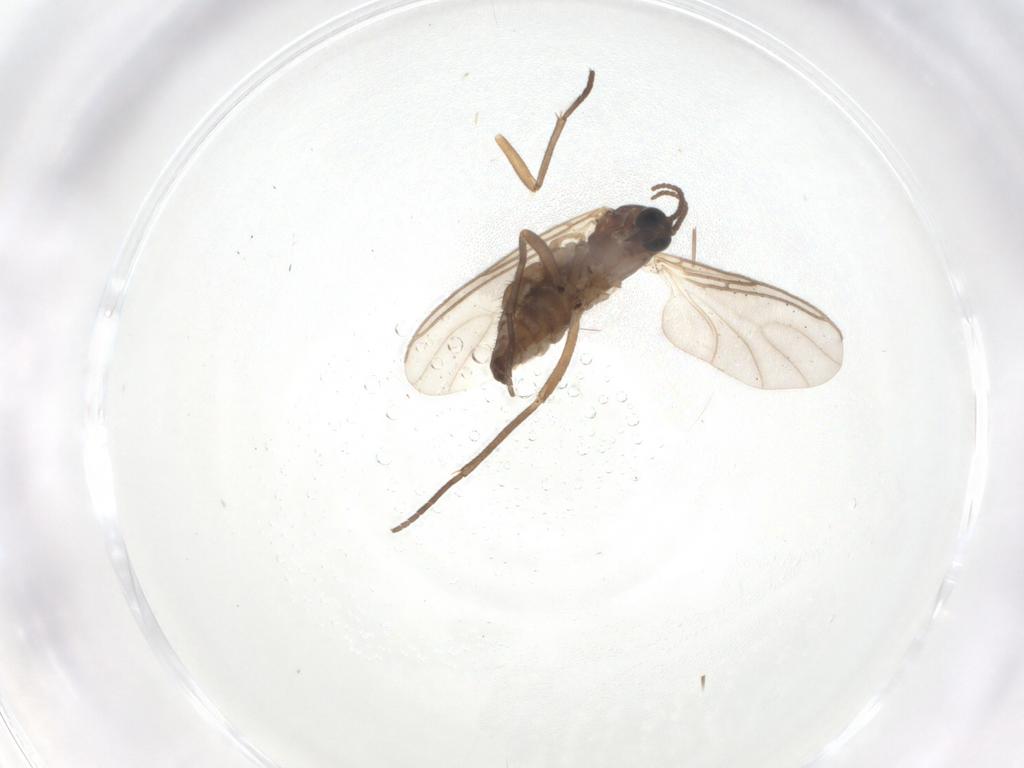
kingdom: Animalia
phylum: Arthropoda
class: Insecta
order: Diptera
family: Sciaridae
